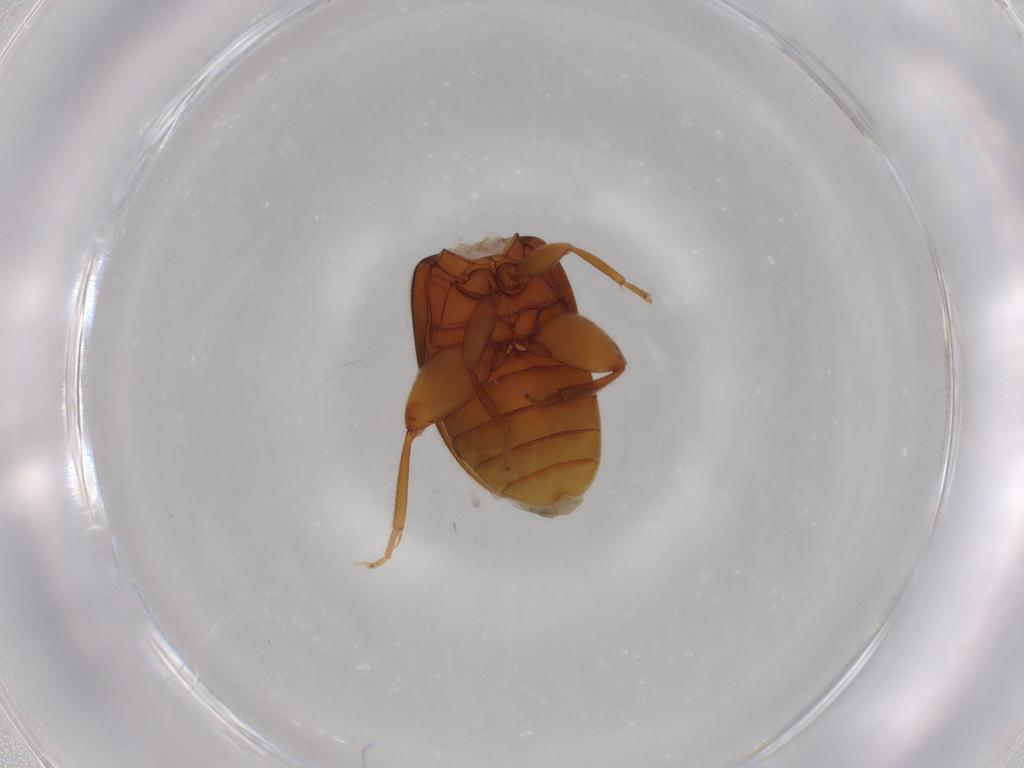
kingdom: Animalia
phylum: Arthropoda
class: Insecta
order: Coleoptera
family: Scirtidae
